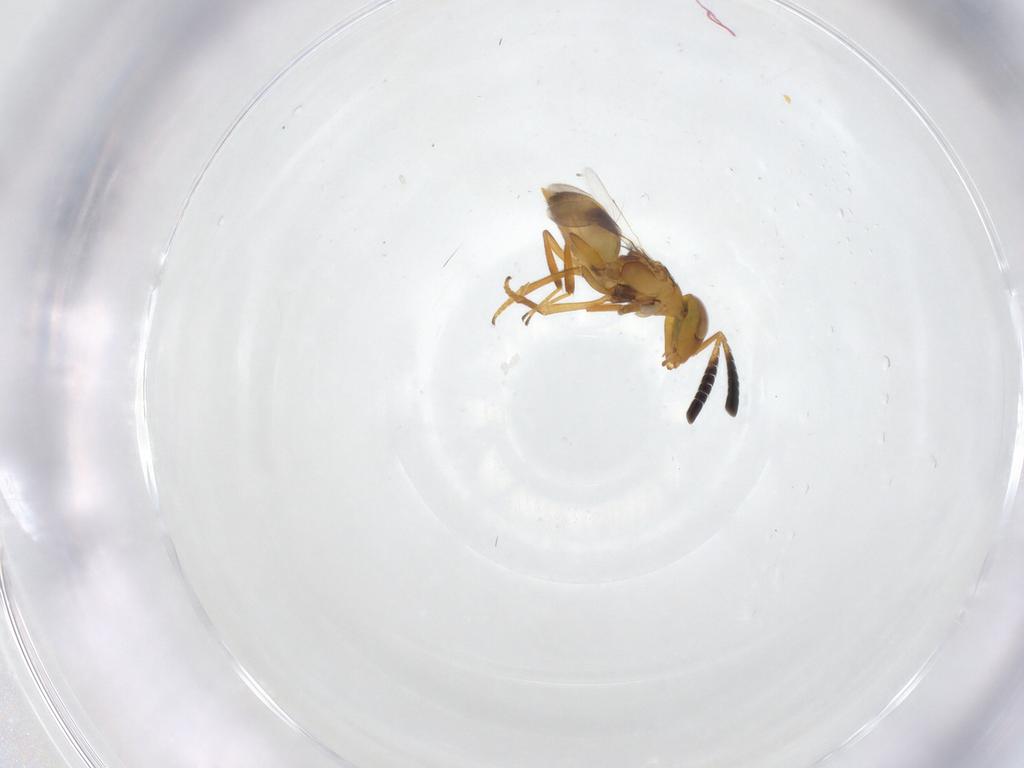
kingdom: Animalia
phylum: Arthropoda
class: Insecta
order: Hymenoptera
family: Encyrtidae
